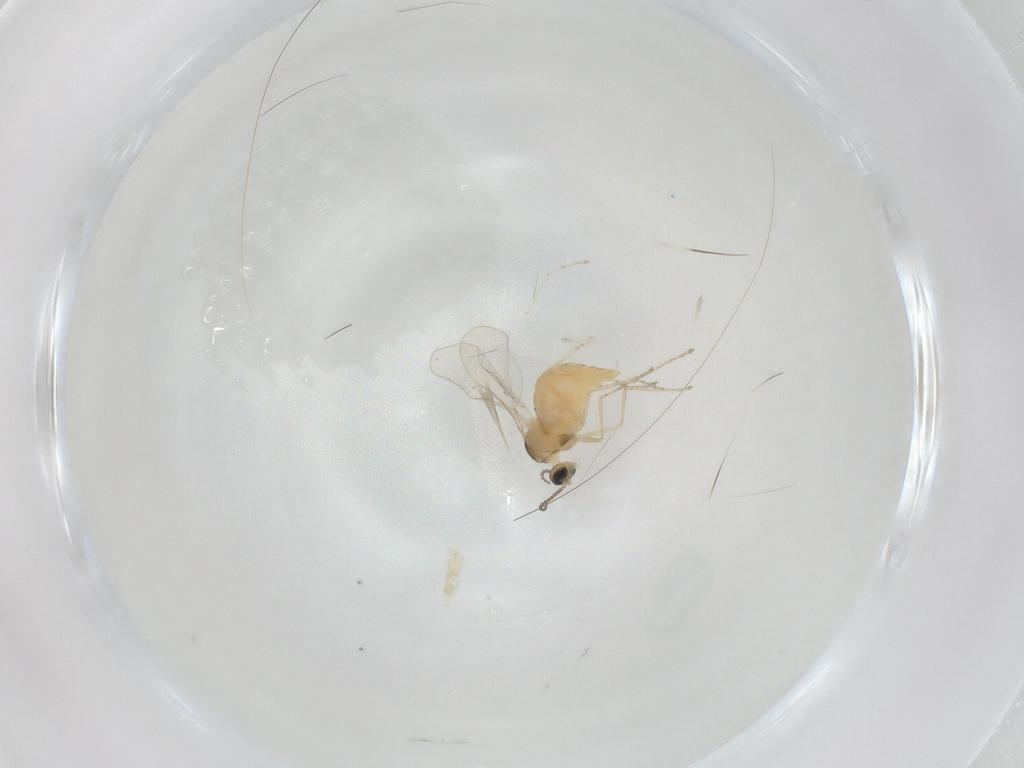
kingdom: Animalia
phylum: Arthropoda
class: Insecta
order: Diptera
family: Cecidomyiidae
